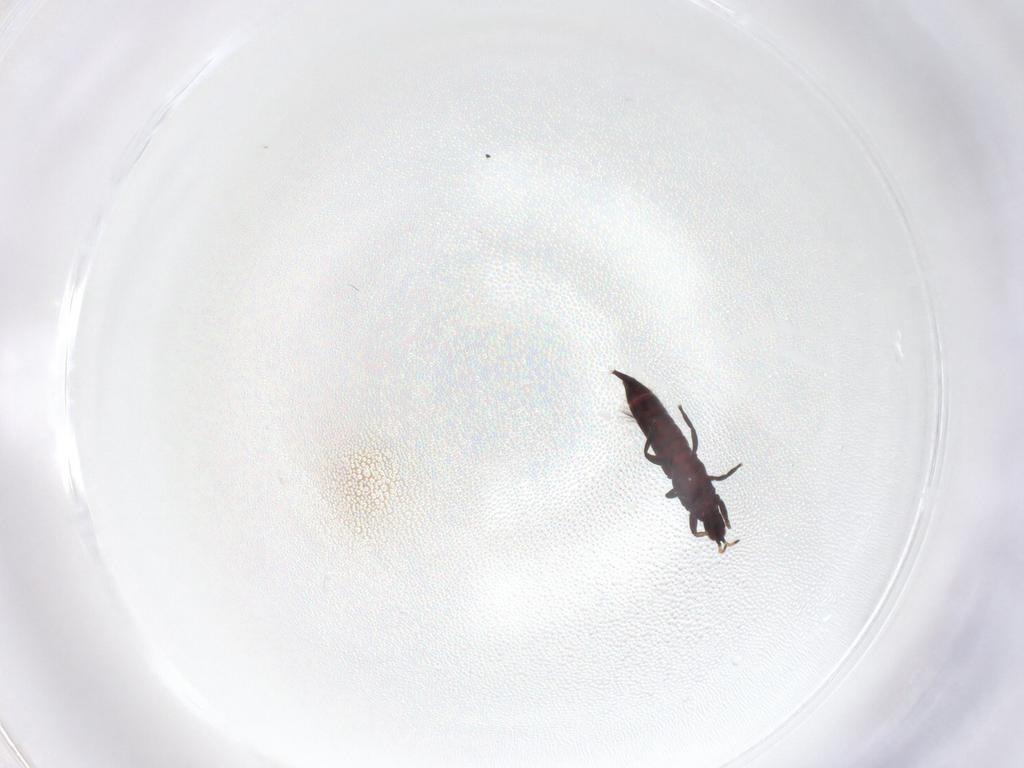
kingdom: Animalia
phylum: Arthropoda
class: Insecta
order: Thysanoptera
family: Phlaeothripidae
